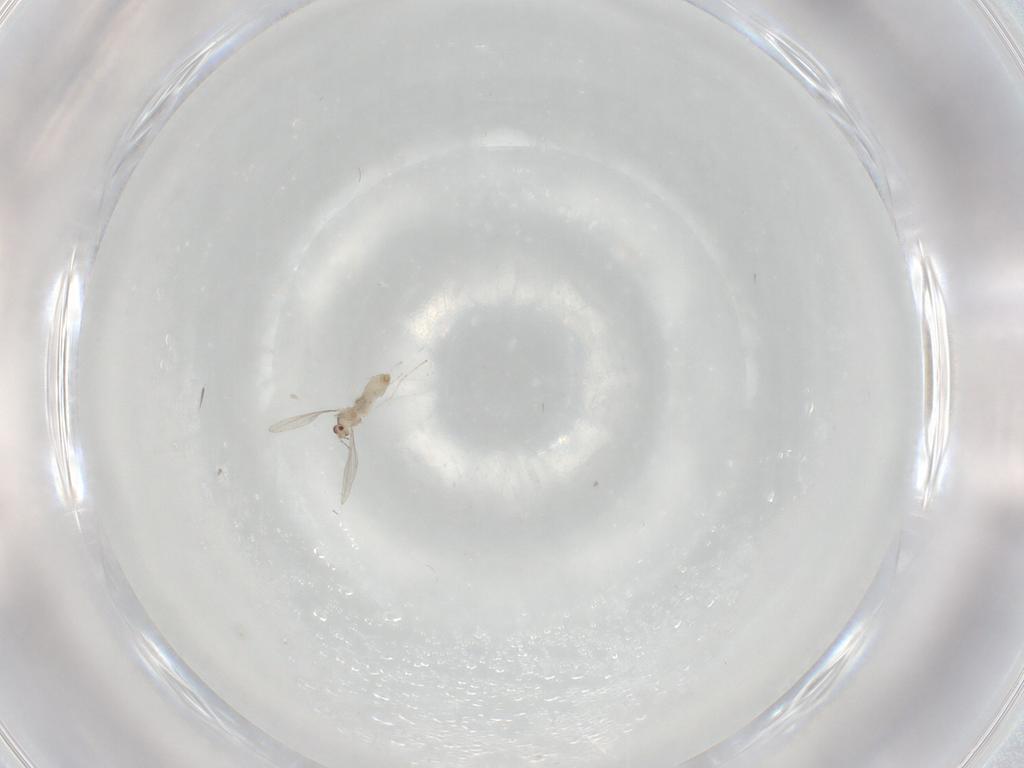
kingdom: Animalia
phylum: Arthropoda
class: Insecta
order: Diptera
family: Cecidomyiidae
